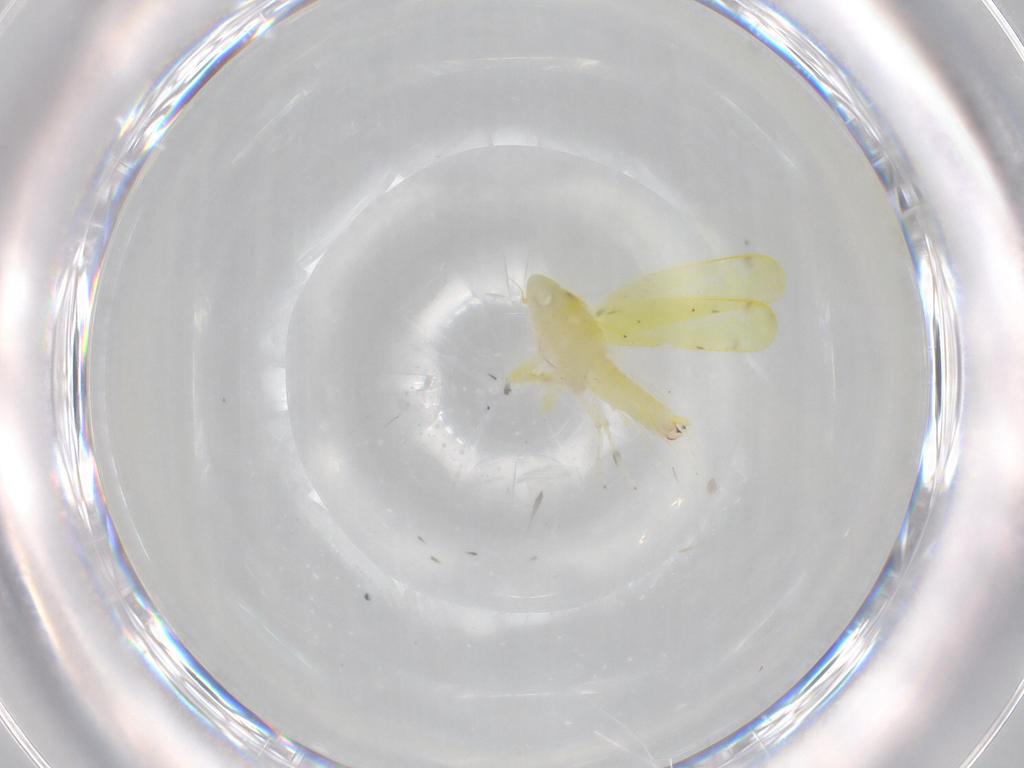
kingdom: Animalia
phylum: Arthropoda
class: Insecta
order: Hemiptera
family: Cicadellidae
